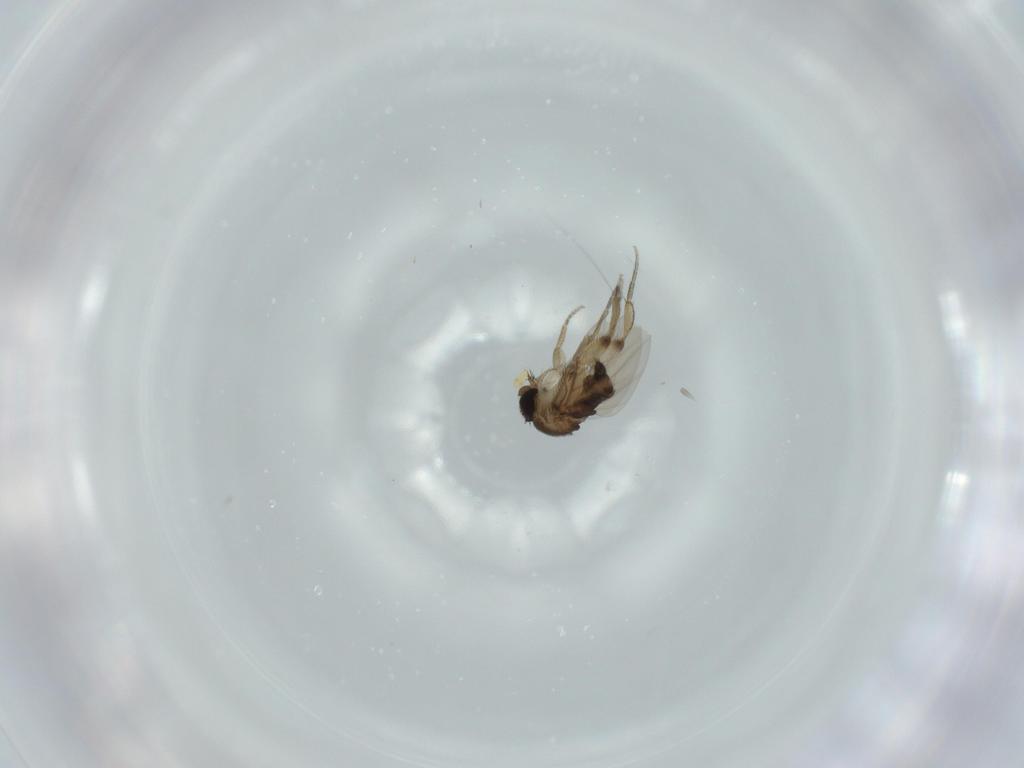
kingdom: Animalia
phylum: Arthropoda
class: Insecta
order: Diptera
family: Phoridae
